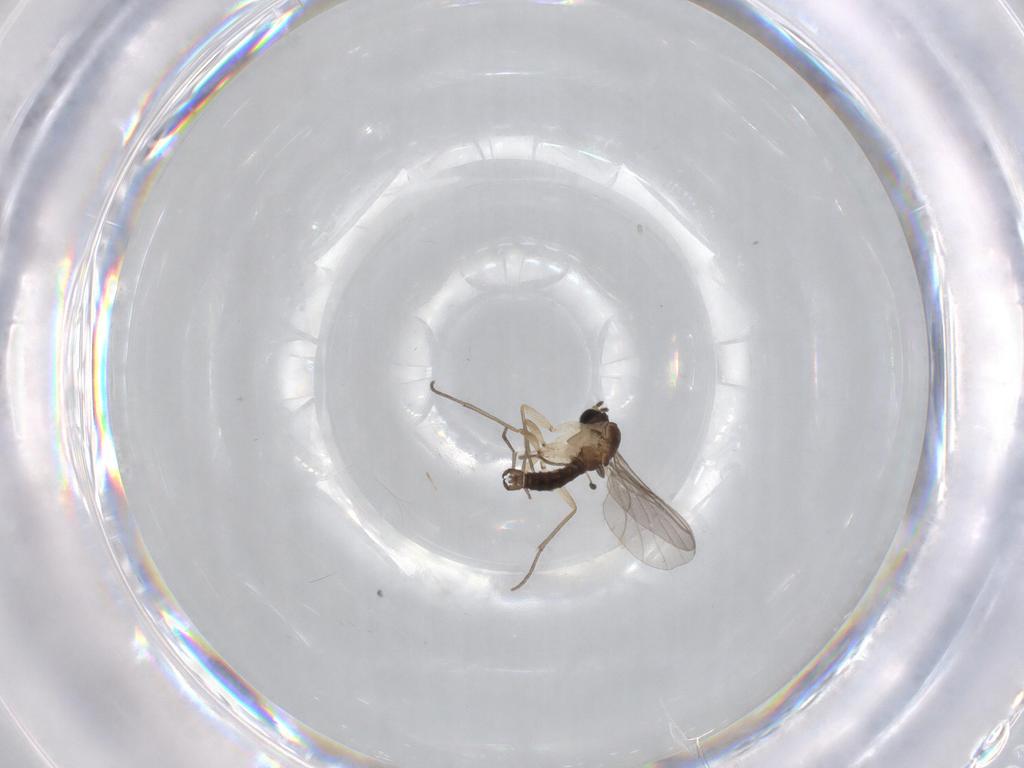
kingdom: Animalia
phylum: Arthropoda
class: Insecta
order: Diptera
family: Sciaridae
